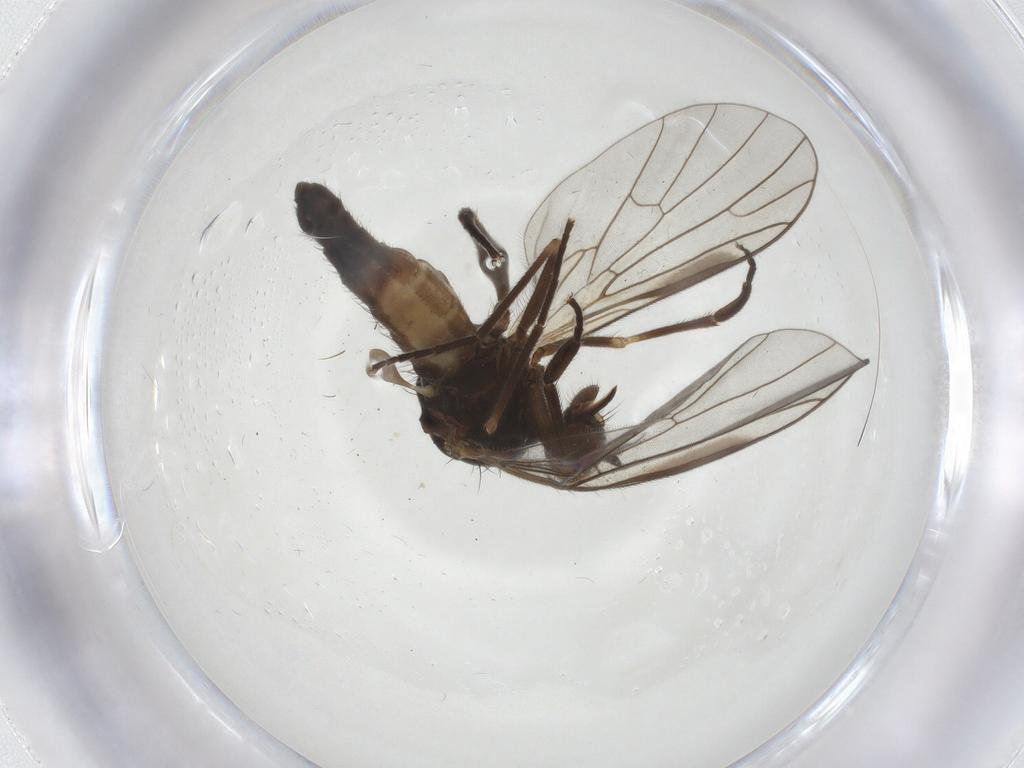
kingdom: Animalia
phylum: Arthropoda
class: Insecta
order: Diptera
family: Empididae
